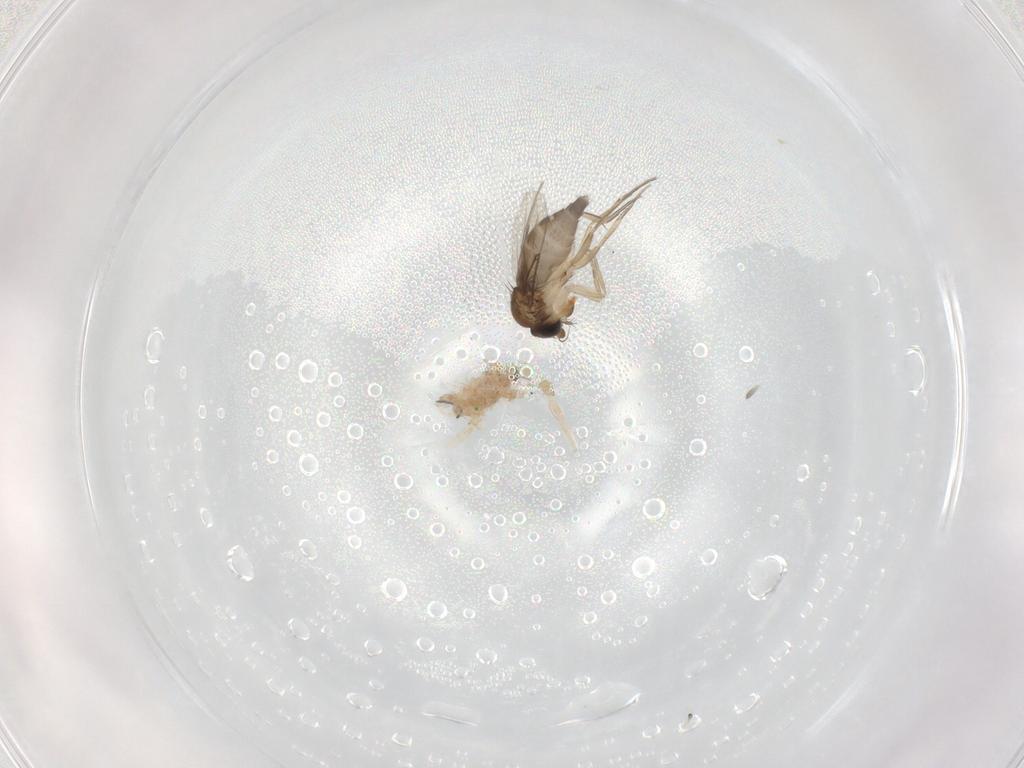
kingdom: Animalia
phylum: Arthropoda
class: Insecta
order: Diptera
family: Cecidomyiidae
